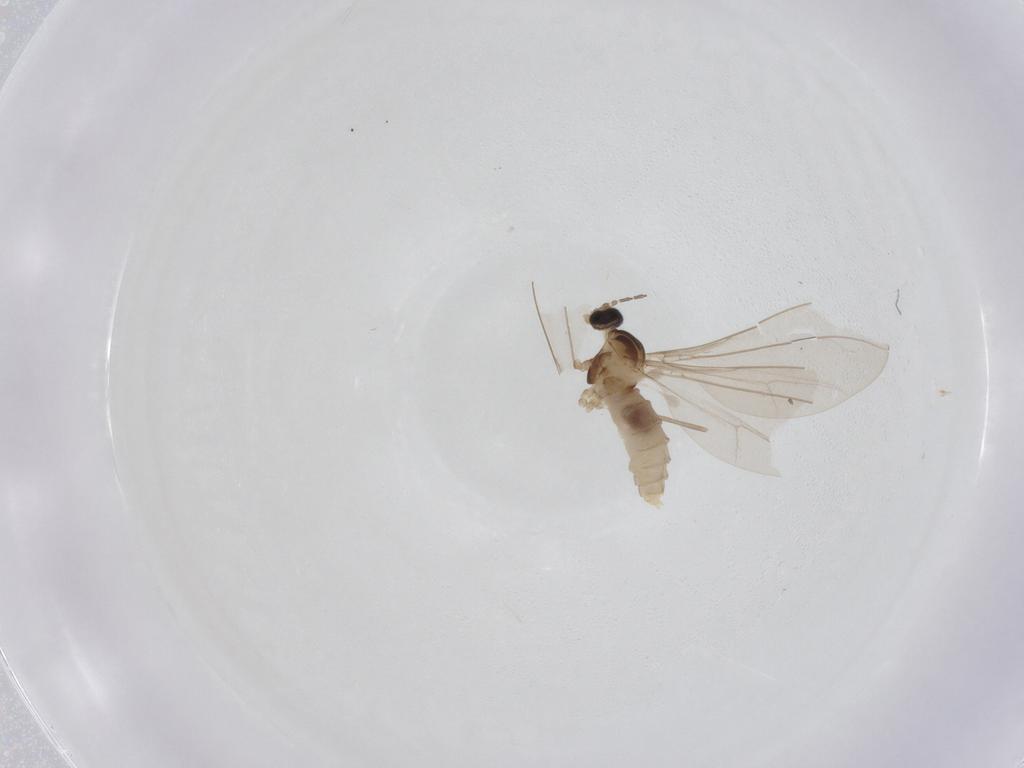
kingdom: Animalia
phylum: Arthropoda
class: Insecta
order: Diptera
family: Cecidomyiidae
